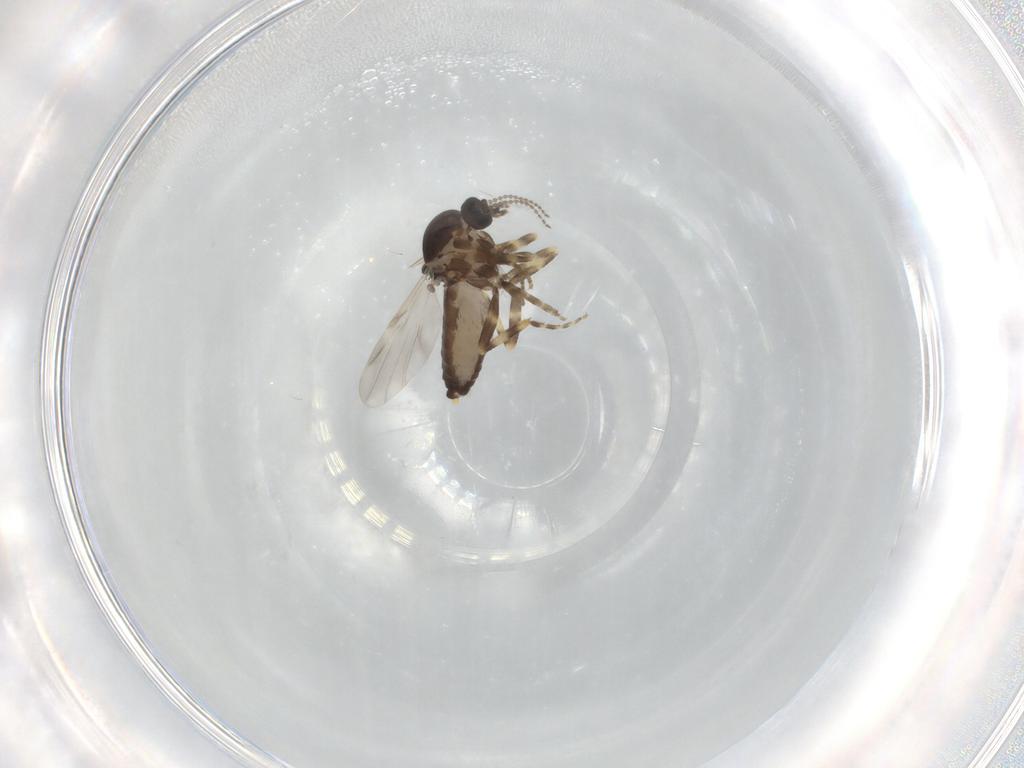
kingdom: Animalia
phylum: Arthropoda
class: Insecta
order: Diptera
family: Ceratopogonidae
